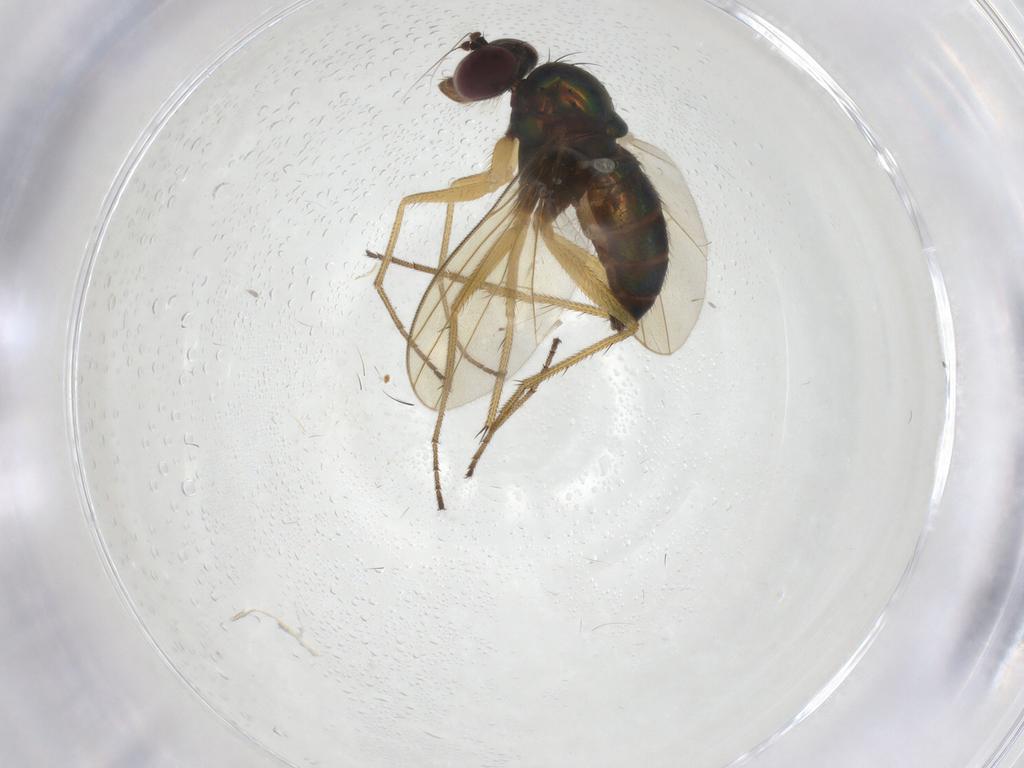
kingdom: Animalia
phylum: Arthropoda
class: Insecta
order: Diptera
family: Dolichopodidae
